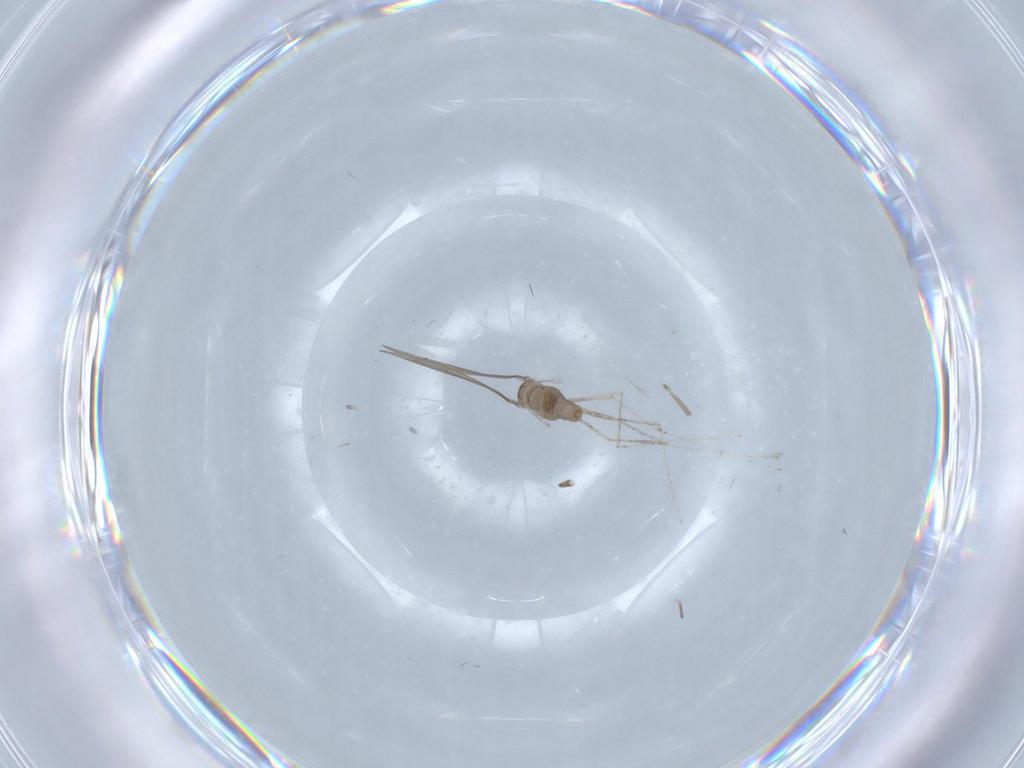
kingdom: Animalia
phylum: Arthropoda
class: Insecta
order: Diptera
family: Cecidomyiidae
